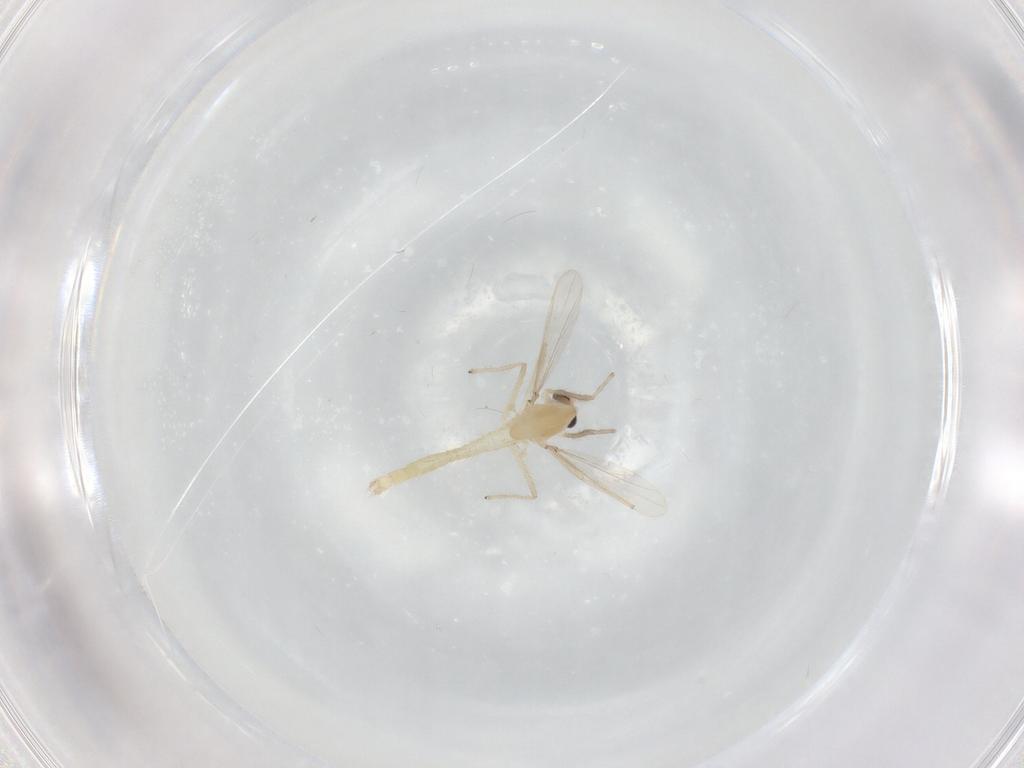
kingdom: Animalia
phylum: Arthropoda
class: Insecta
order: Diptera
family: Chironomidae
